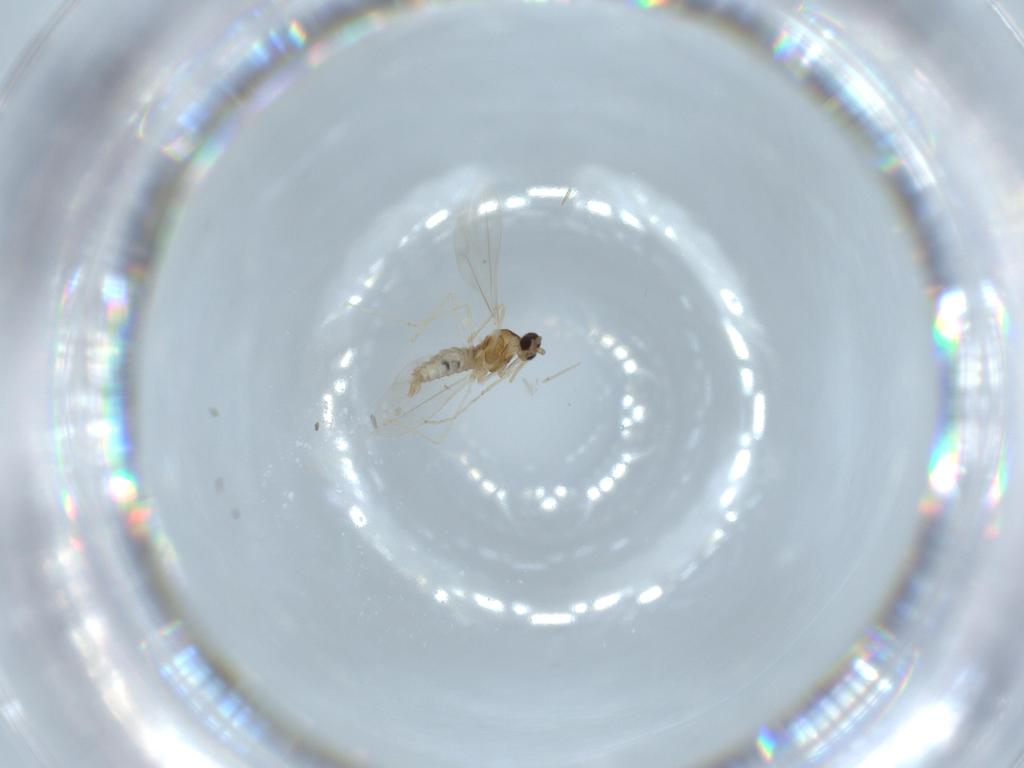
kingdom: Animalia
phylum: Arthropoda
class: Insecta
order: Diptera
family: Cecidomyiidae
